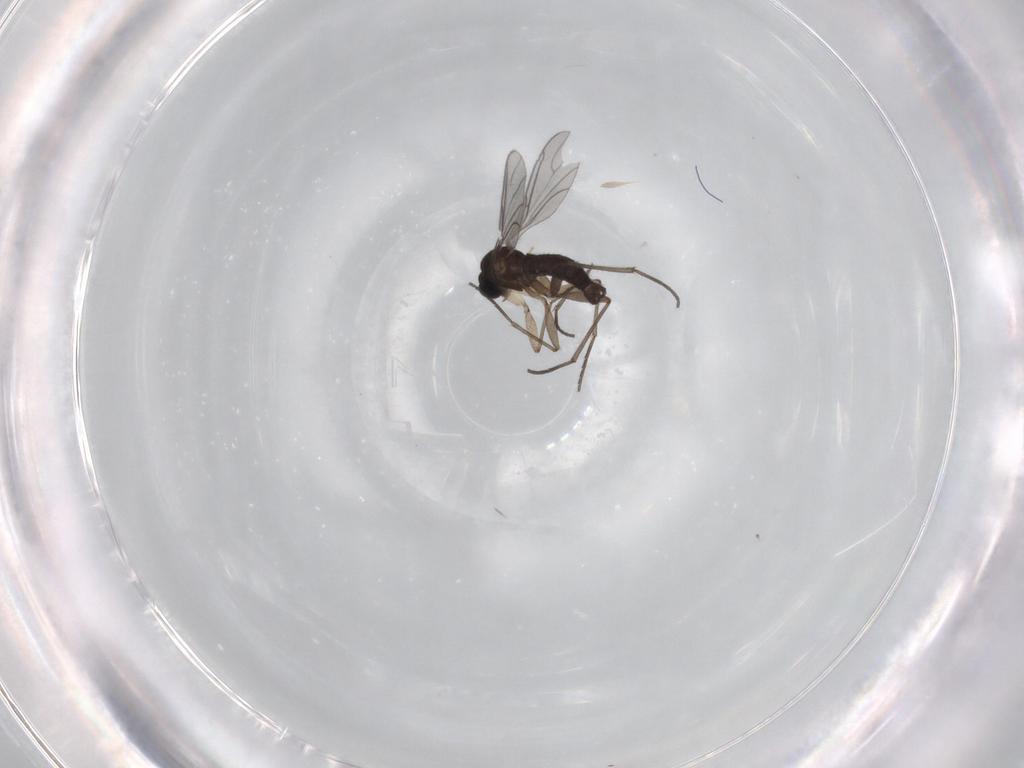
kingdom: Animalia
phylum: Arthropoda
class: Insecta
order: Diptera
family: Sciaridae
